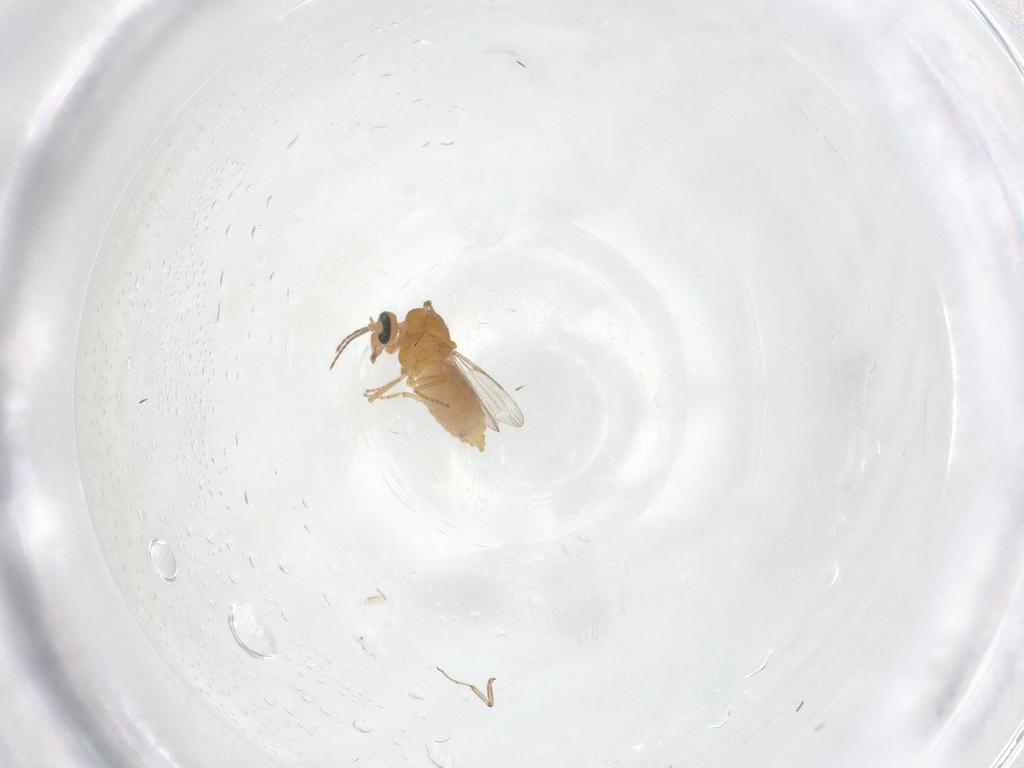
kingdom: Animalia
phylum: Arthropoda
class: Insecta
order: Diptera
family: Ceratopogonidae
